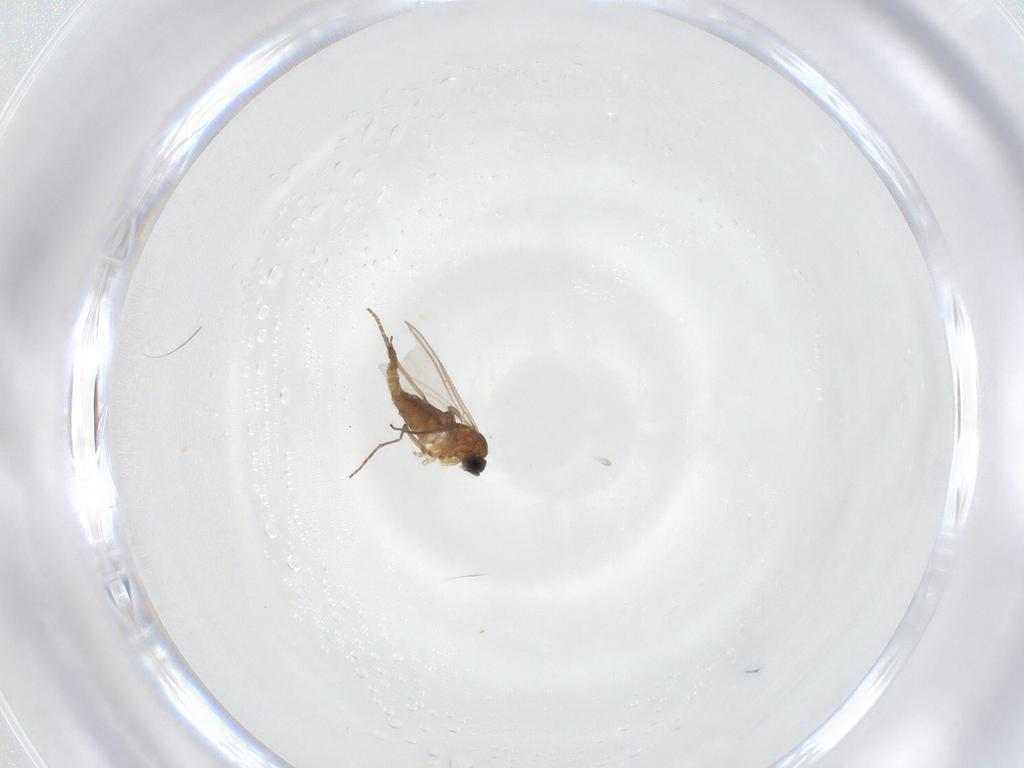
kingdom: Animalia
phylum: Arthropoda
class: Insecta
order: Diptera
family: Sciaridae
